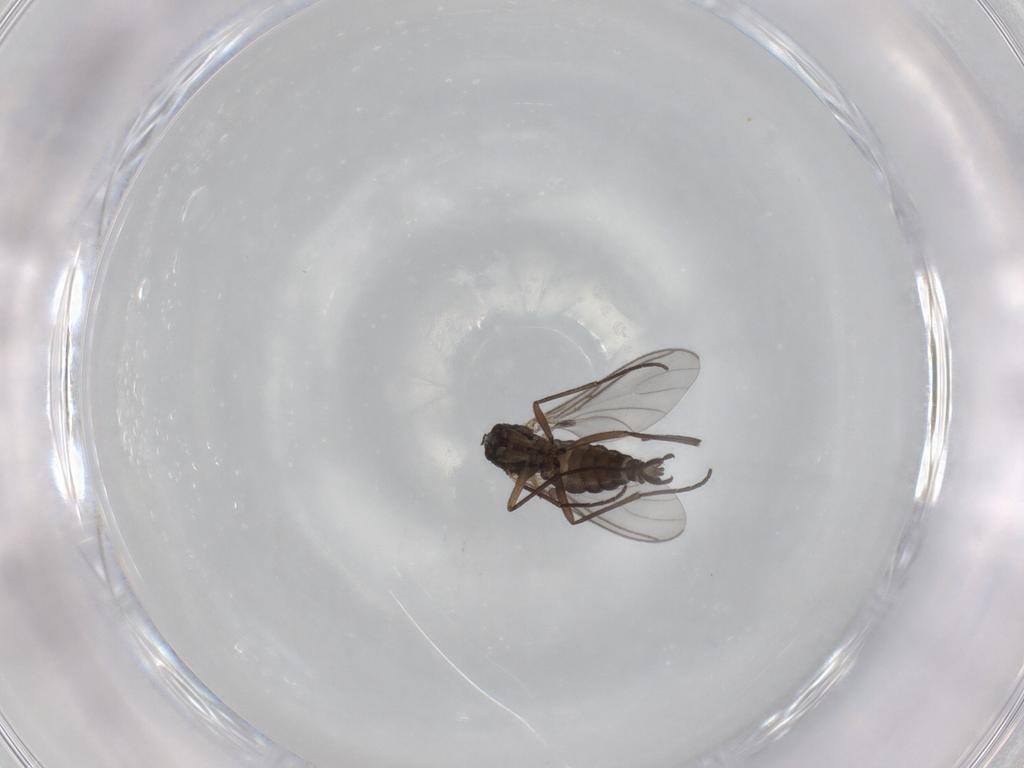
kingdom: Animalia
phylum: Arthropoda
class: Insecta
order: Diptera
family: Sciaridae
